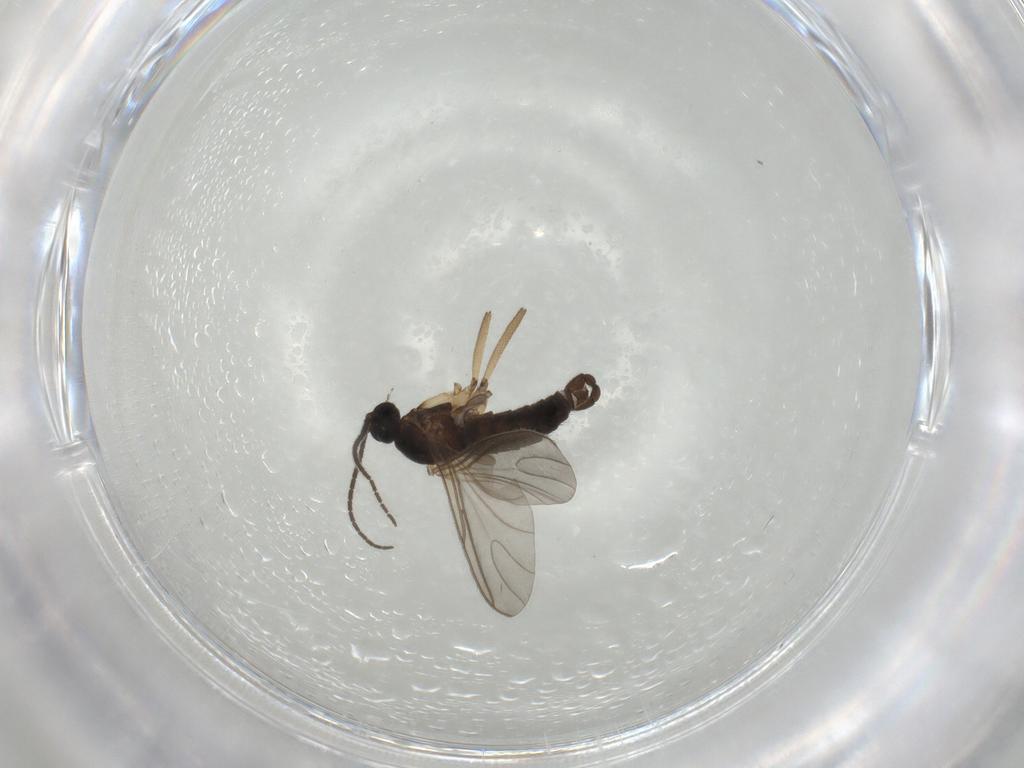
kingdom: Animalia
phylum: Arthropoda
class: Insecta
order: Diptera
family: Sciaridae
